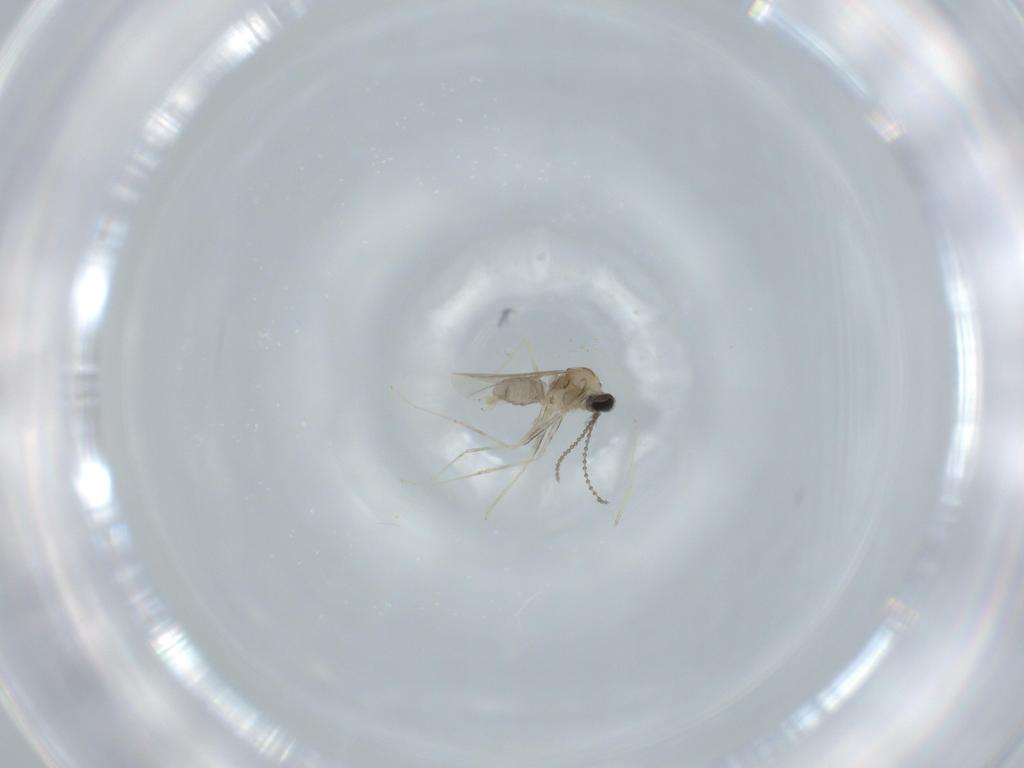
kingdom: Animalia
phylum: Arthropoda
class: Insecta
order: Diptera
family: Cecidomyiidae
